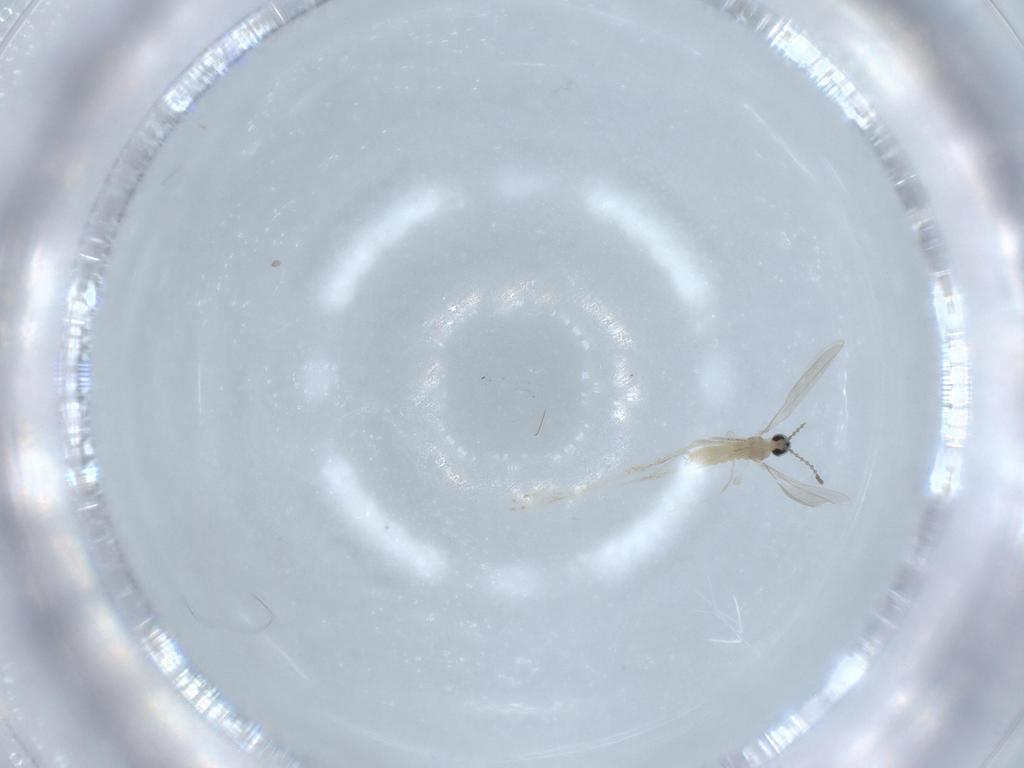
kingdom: Animalia
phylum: Arthropoda
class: Insecta
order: Diptera
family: Cecidomyiidae
